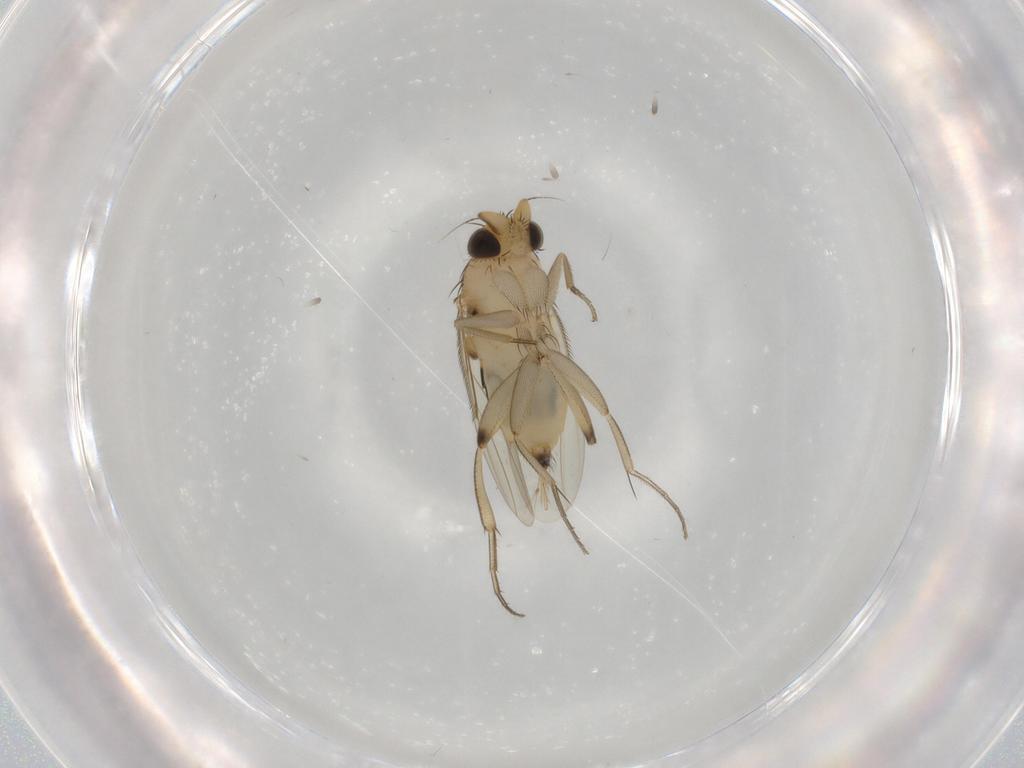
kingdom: Animalia
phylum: Arthropoda
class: Insecta
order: Diptera
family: Phoridae
